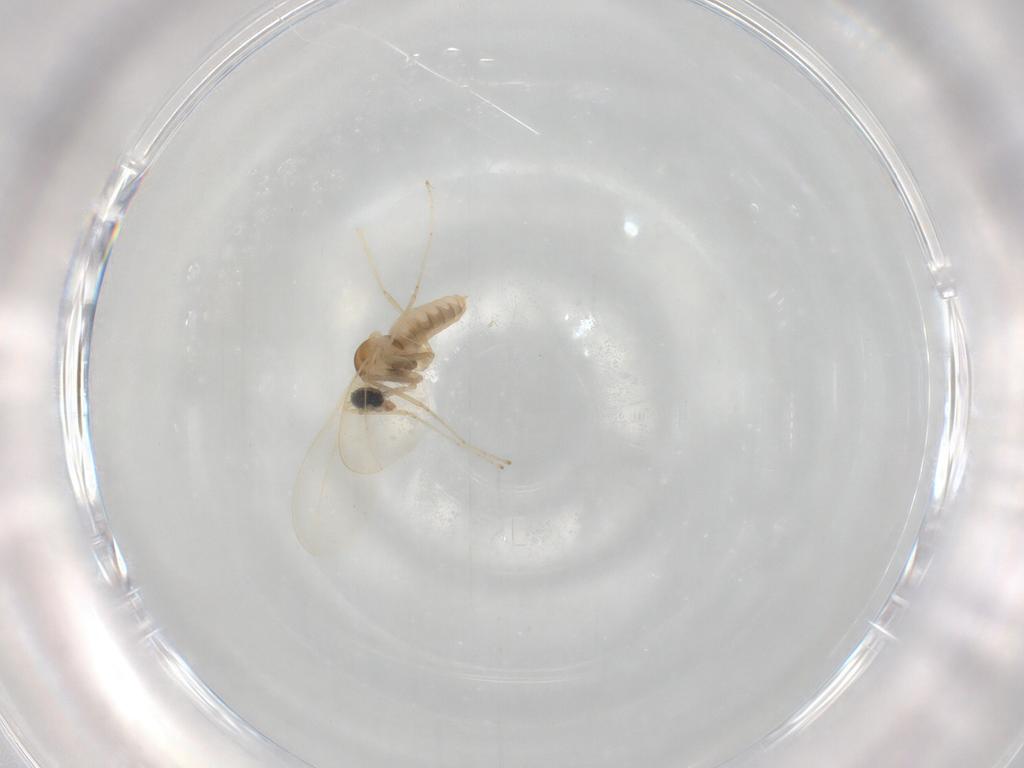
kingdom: Animalia
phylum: Arthropoda
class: Insecta
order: Diptera
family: Cecidomyiidae
